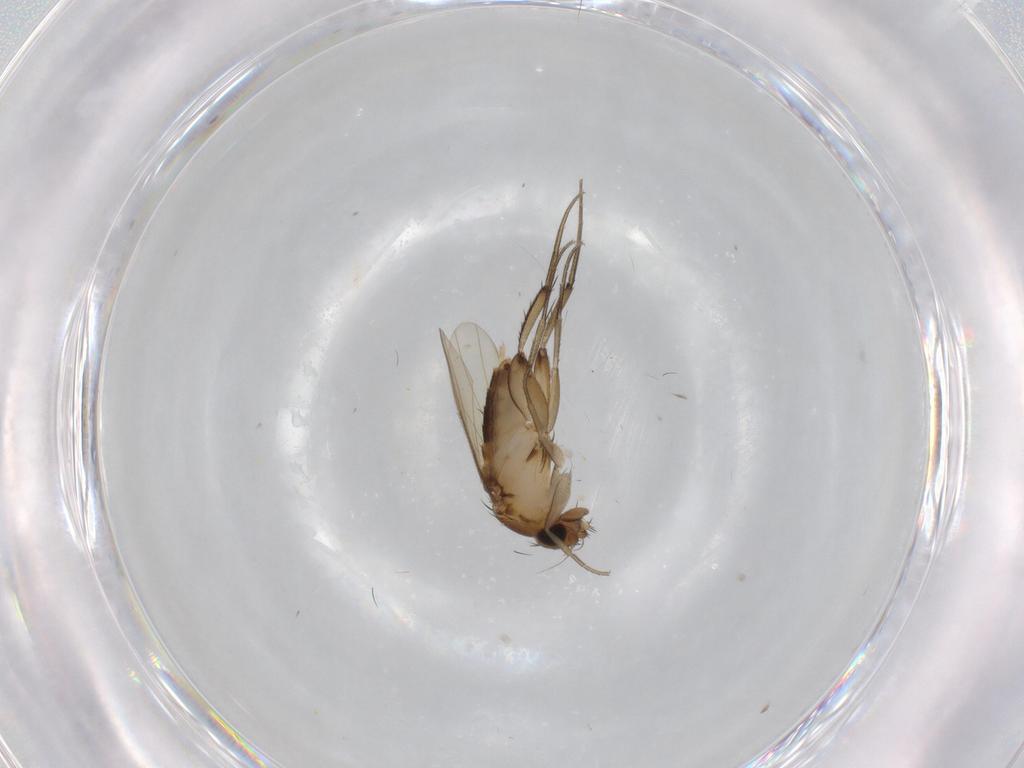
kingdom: Animalia
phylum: Arthropoda
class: Insecta
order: Diptera
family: Phoridae
